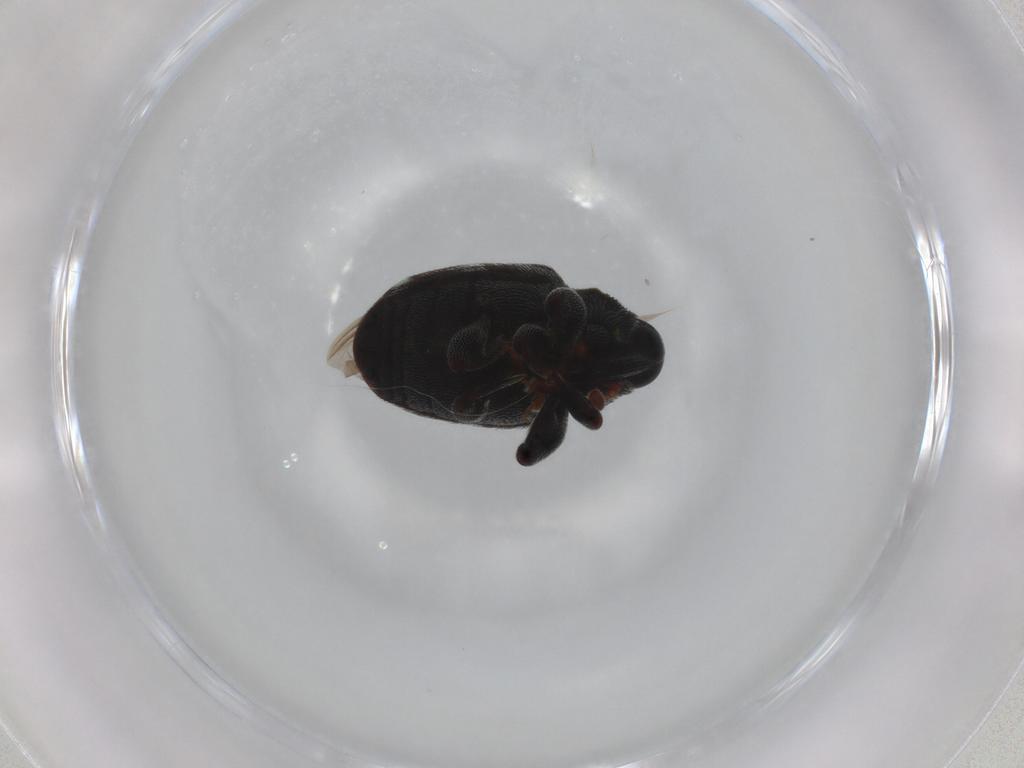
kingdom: Animalia
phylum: Arthropoda
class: Insecta
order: Coleoptera
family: Curculionidae
